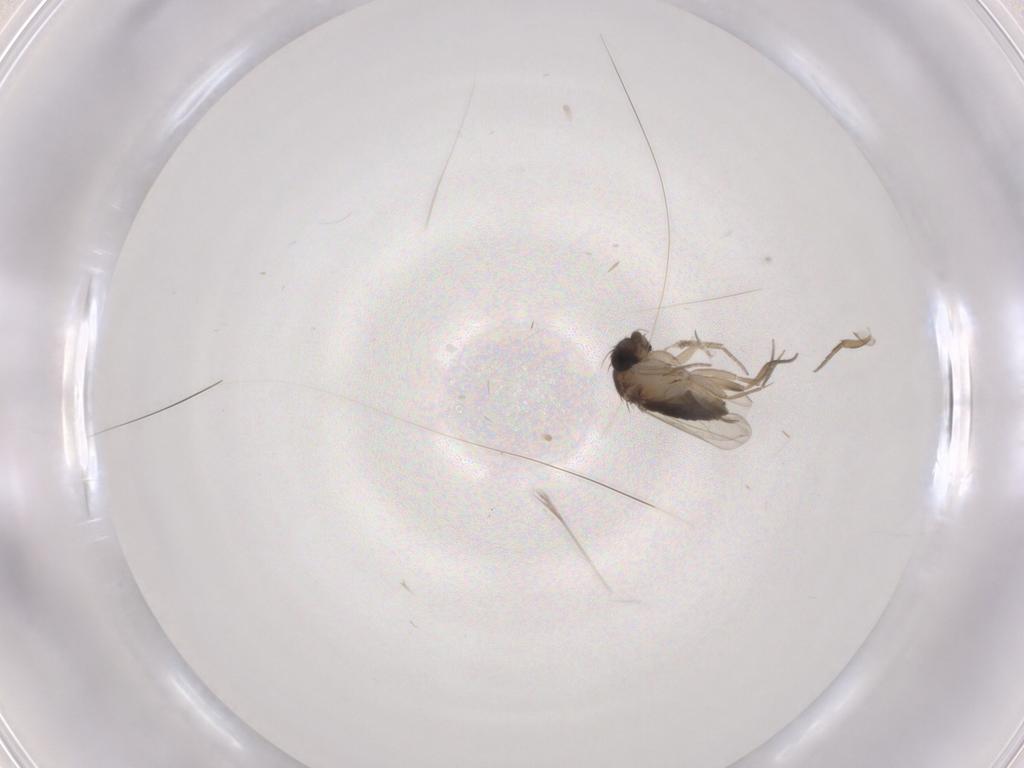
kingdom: Animalia
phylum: Arthropoda
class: Insecta
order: Diptera
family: Phoridae
